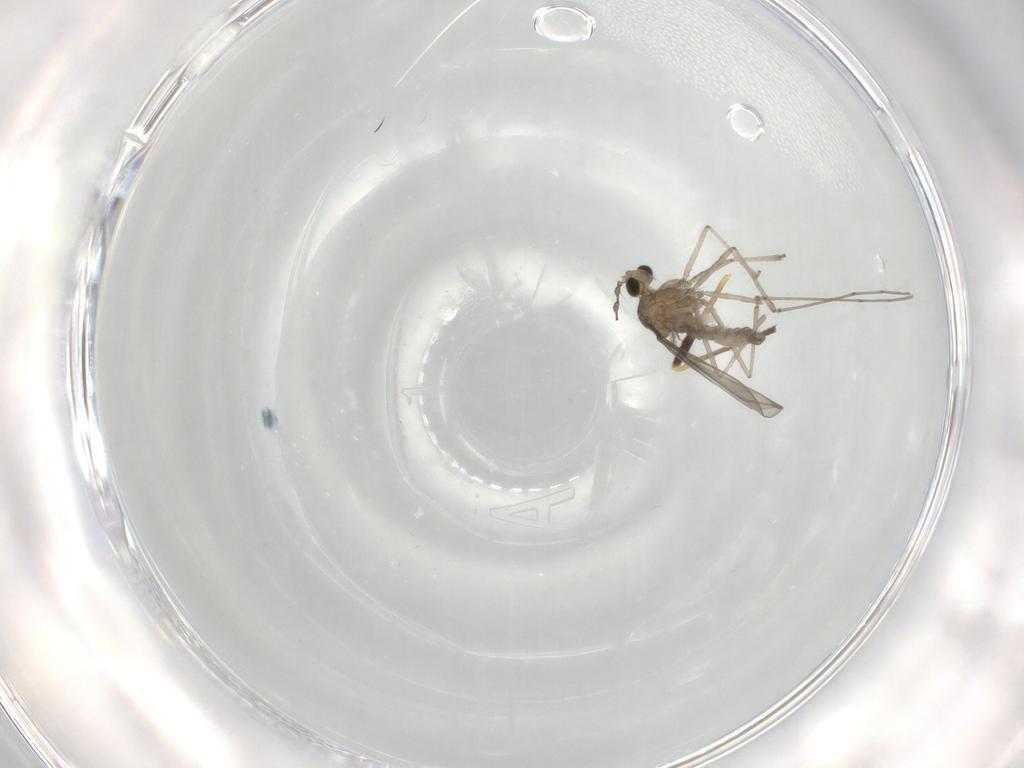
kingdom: Animalia
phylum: Arthropoda
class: Insecta
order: Diptera
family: Cecidomyiidae
